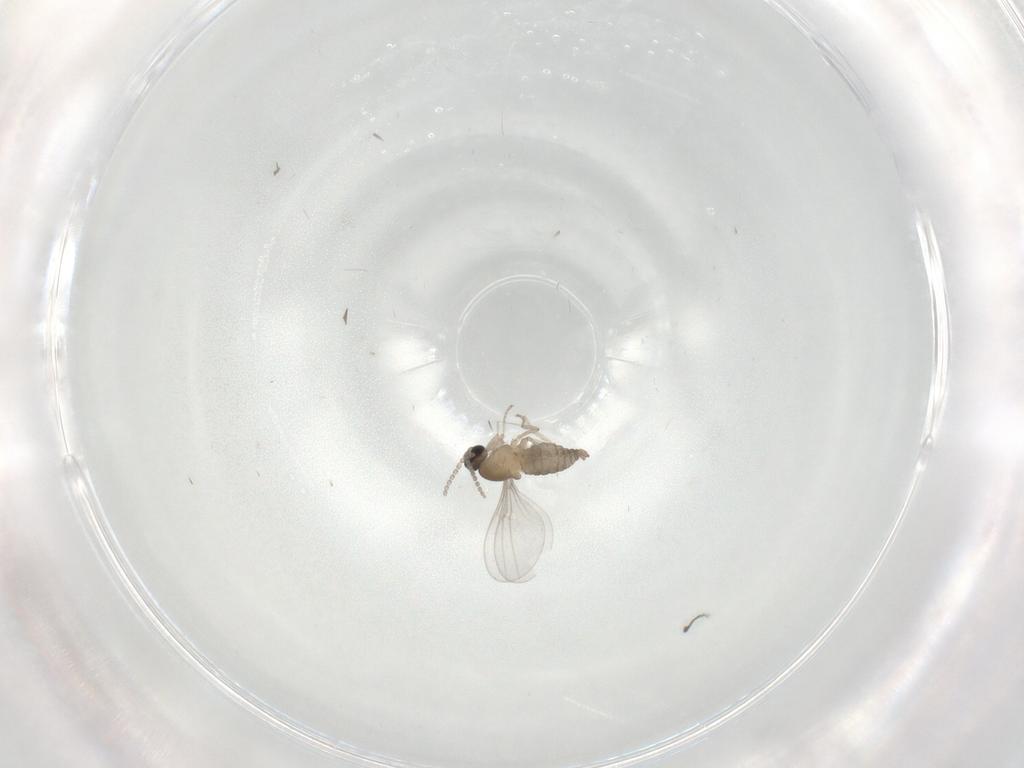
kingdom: Animalia
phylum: Arthropoda
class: Insecta
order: Diptera
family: Cecidomyiidae
